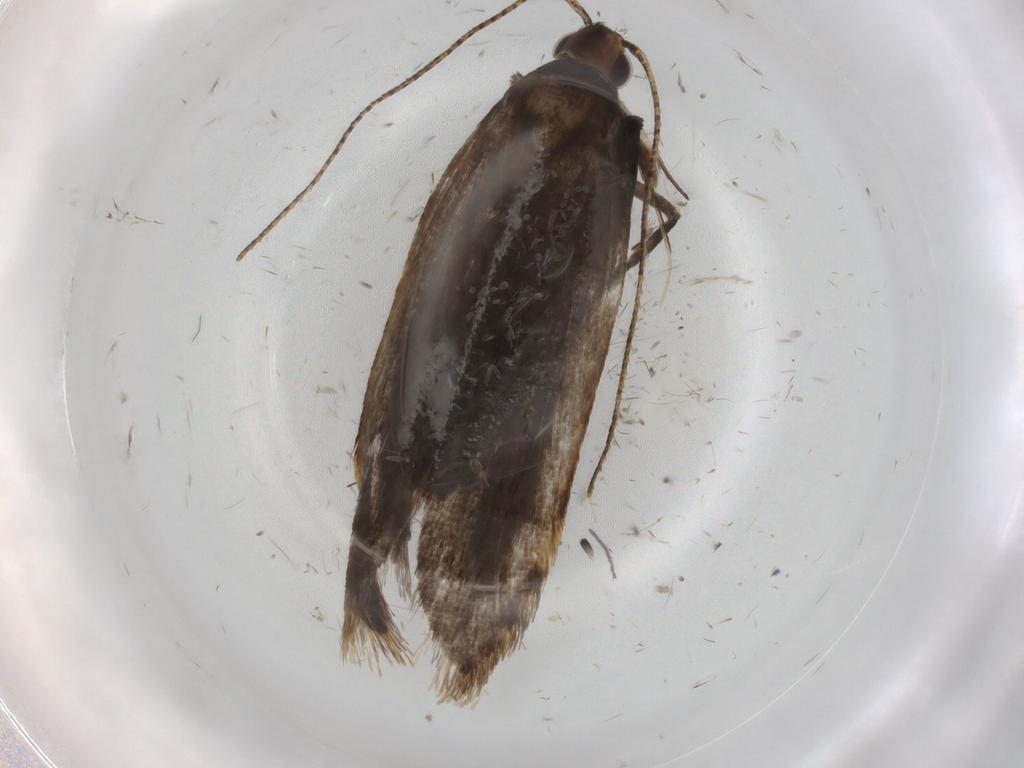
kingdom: Animalia
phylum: Arthropoda
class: Insecta
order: Lepidoptera
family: Gelechiidae
